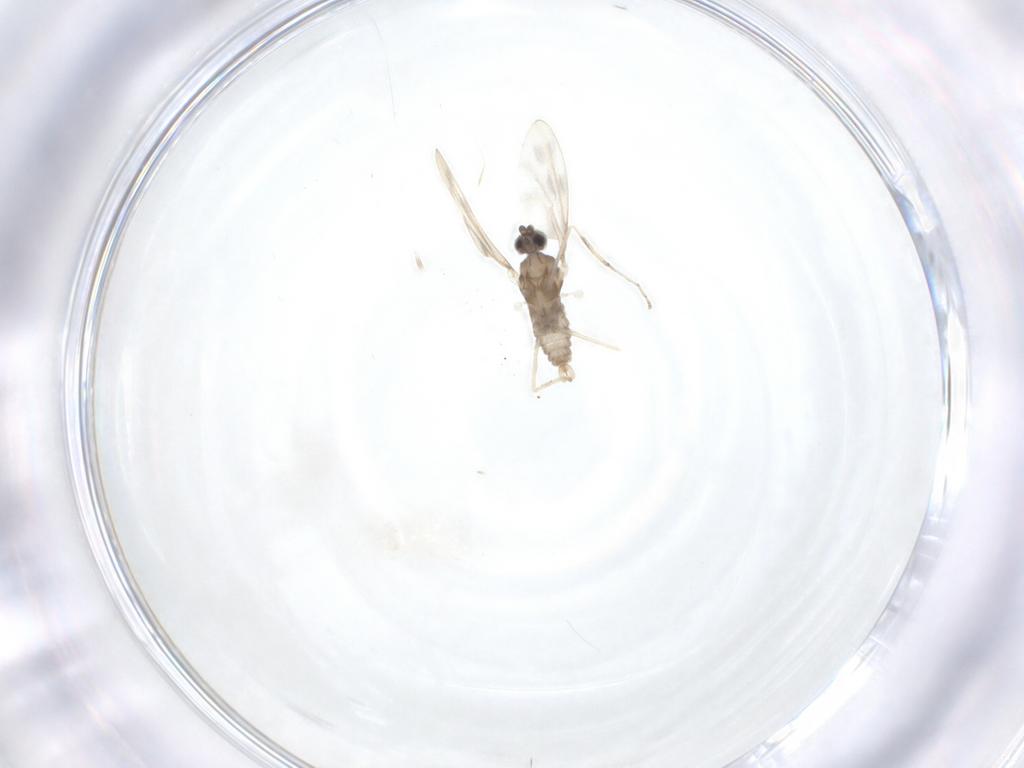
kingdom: Animalia
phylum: Arthropoda
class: Insecta
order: Diptera
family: Cecidomyiidae
